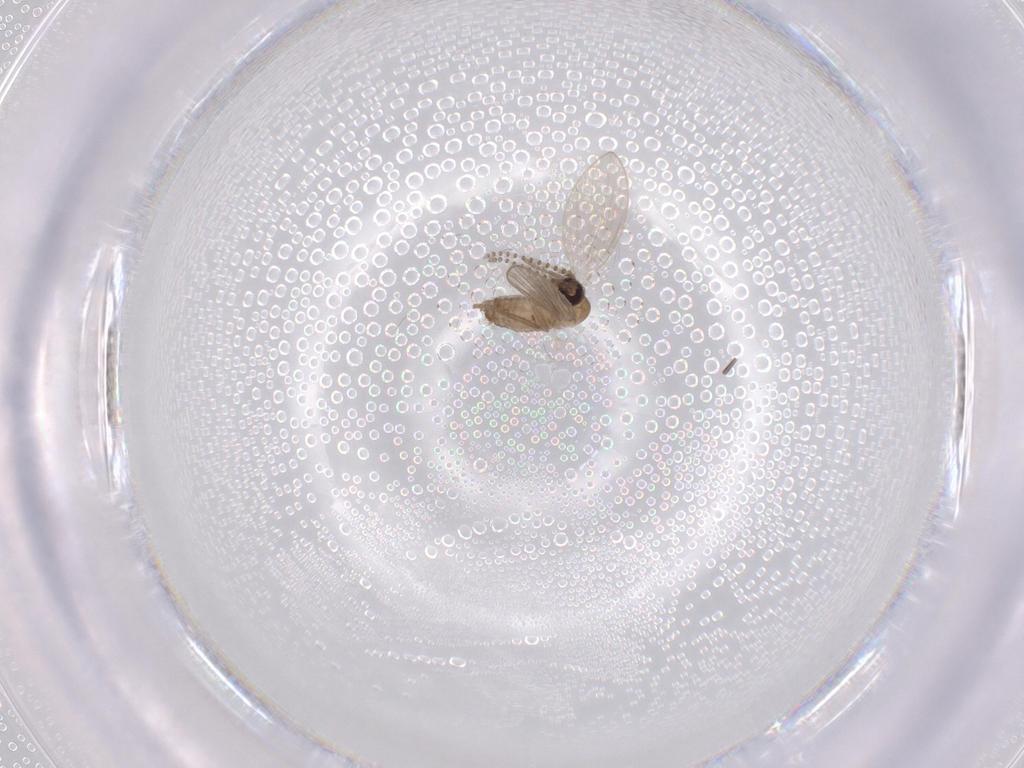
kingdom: Animalia
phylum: Arthropoda
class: Insecta
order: Diptera
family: Psychodidae
